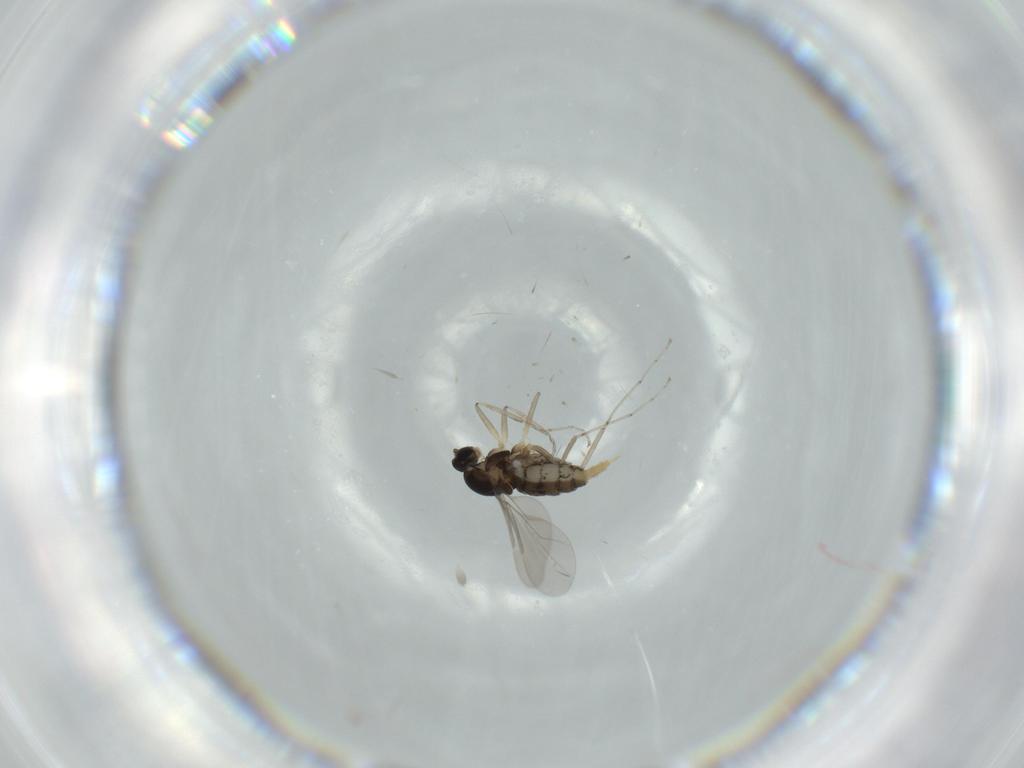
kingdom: Animalia
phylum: Arthropoda
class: Insecta
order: Diptera
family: Cecidomyiidae
